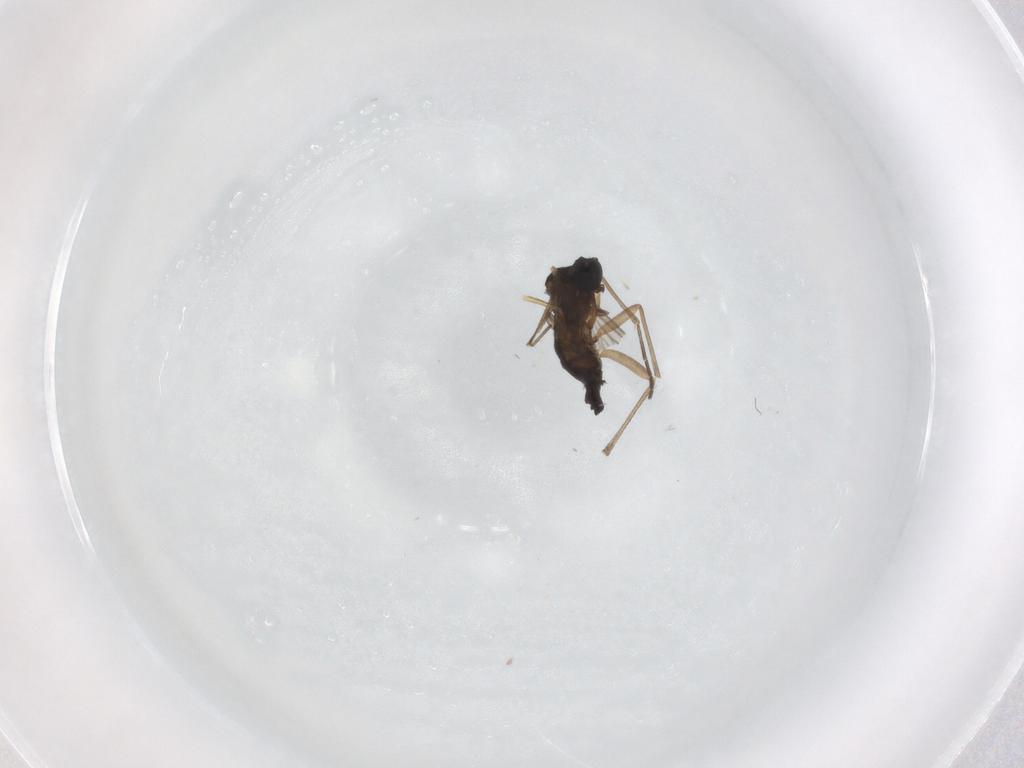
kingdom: Animalia
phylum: Arthropoda
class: Insecta
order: Diptera
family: Sciaridae
